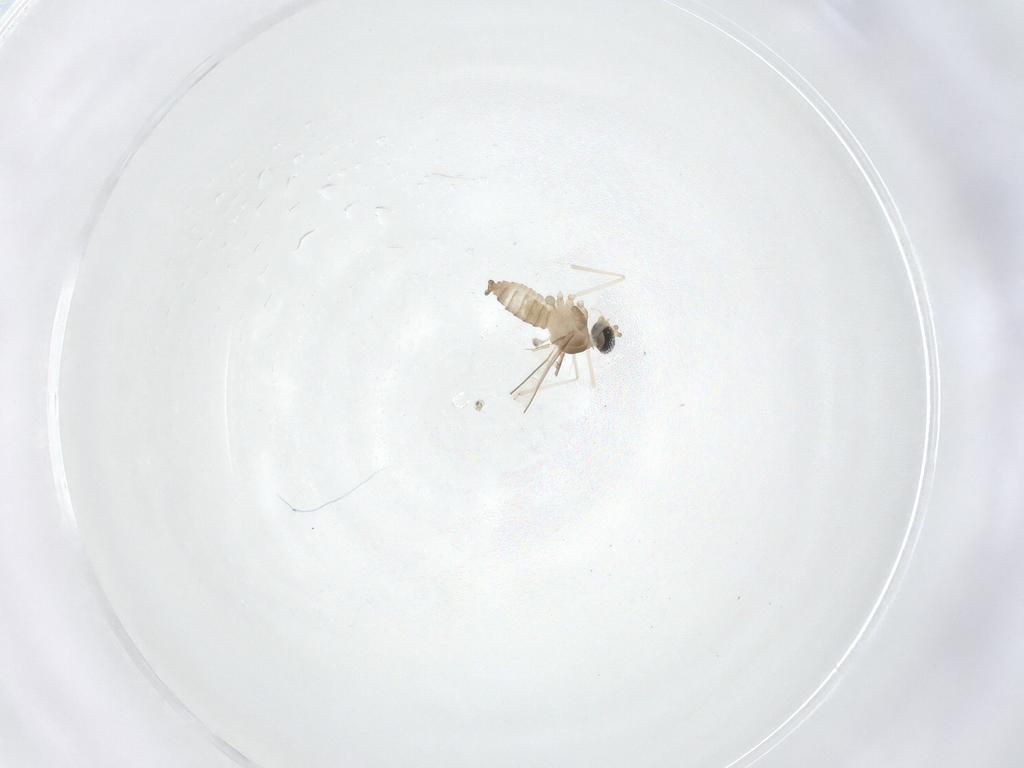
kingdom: Animalia
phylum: Arthropoda
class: Insecta
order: Diptera
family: Cecidomyiidae
